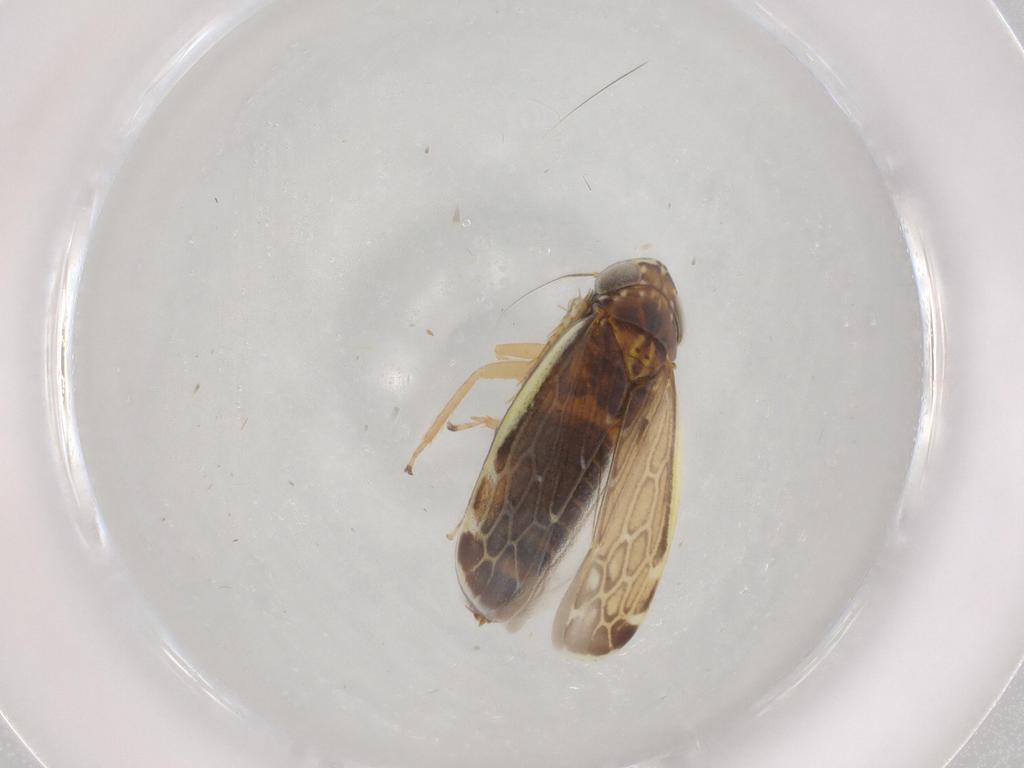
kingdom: Animalia
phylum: Arthropoda
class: Insecta
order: Hemiptera
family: Cicadellidae
